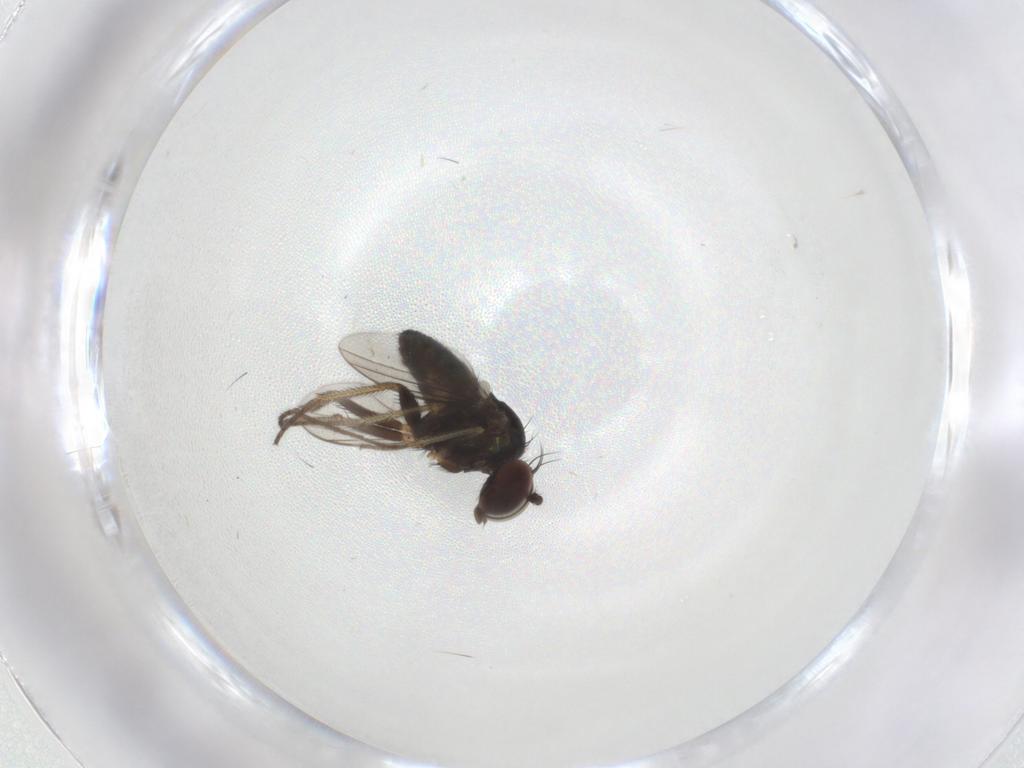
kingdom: Animalia
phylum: Arthropoda
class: Insecta
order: Diptera
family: Chironomidae
